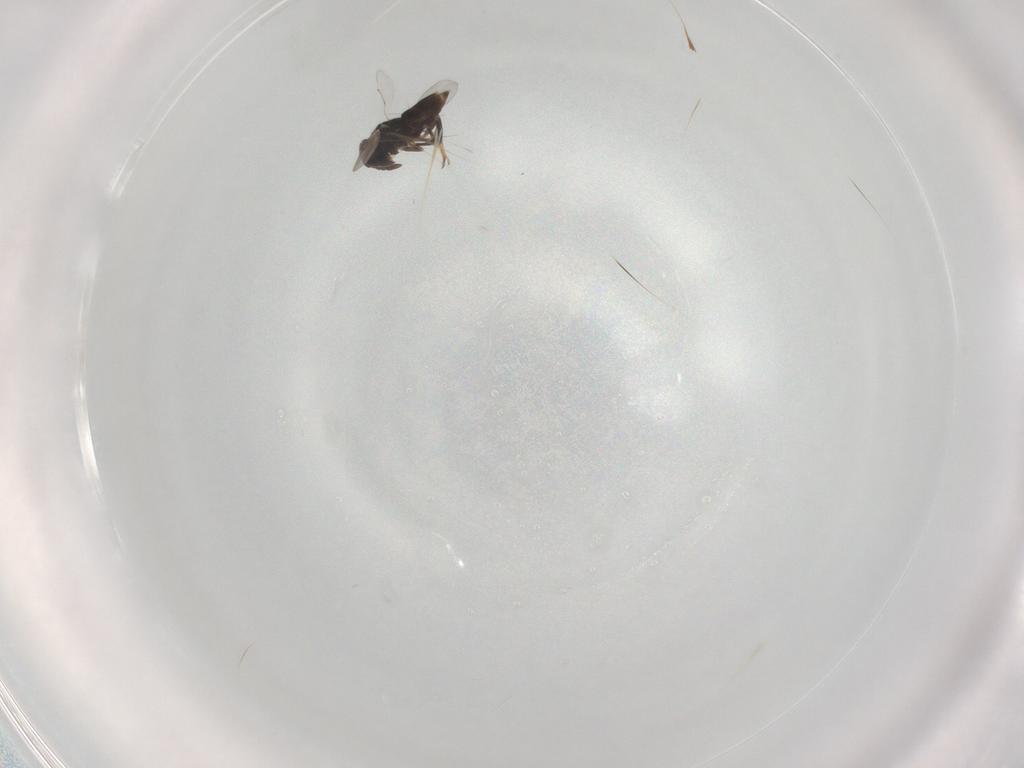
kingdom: Animalia
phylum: Arthropoda
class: Insecta
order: Hymenoptera
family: Encyrtidae
